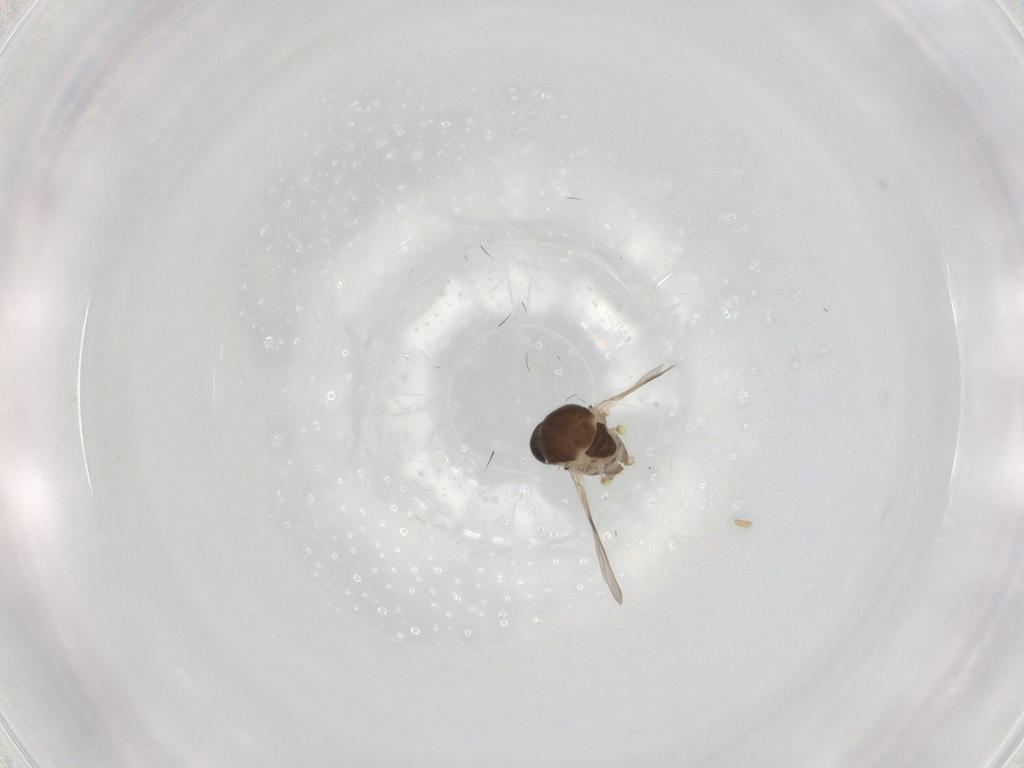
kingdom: Animalia
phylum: Arthropoda
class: Insecta
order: Diptera
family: Ceratopogonidae
